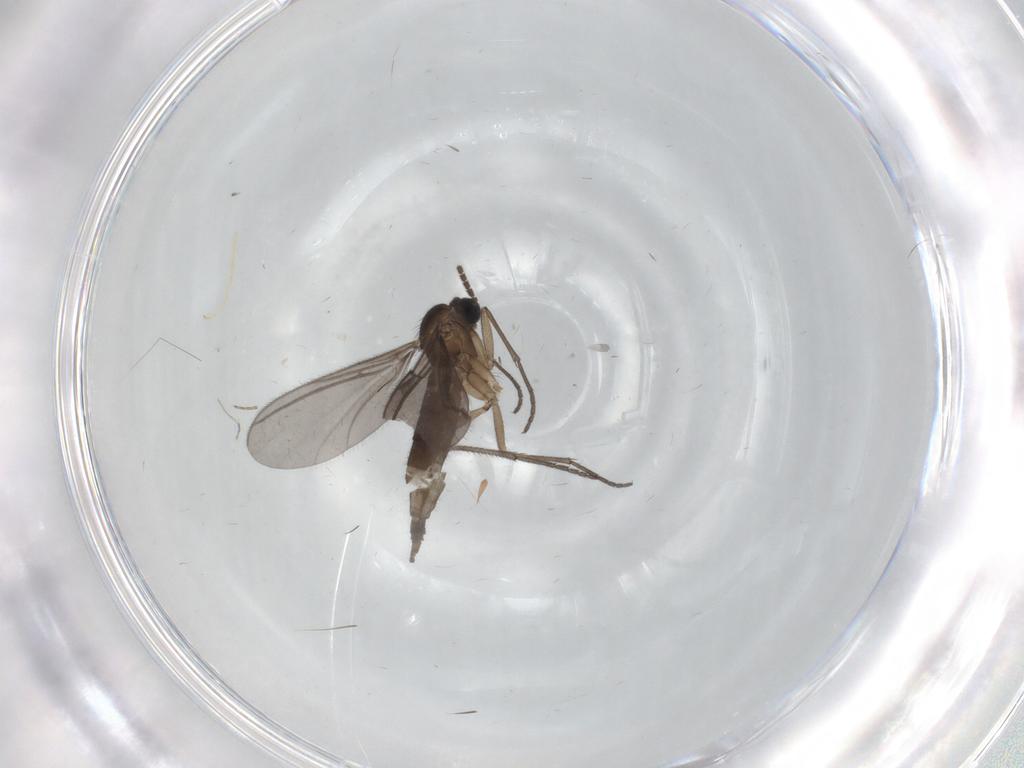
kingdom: Animalia
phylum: Arthropoda
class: Insecta
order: Diptera
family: Sciaridae
